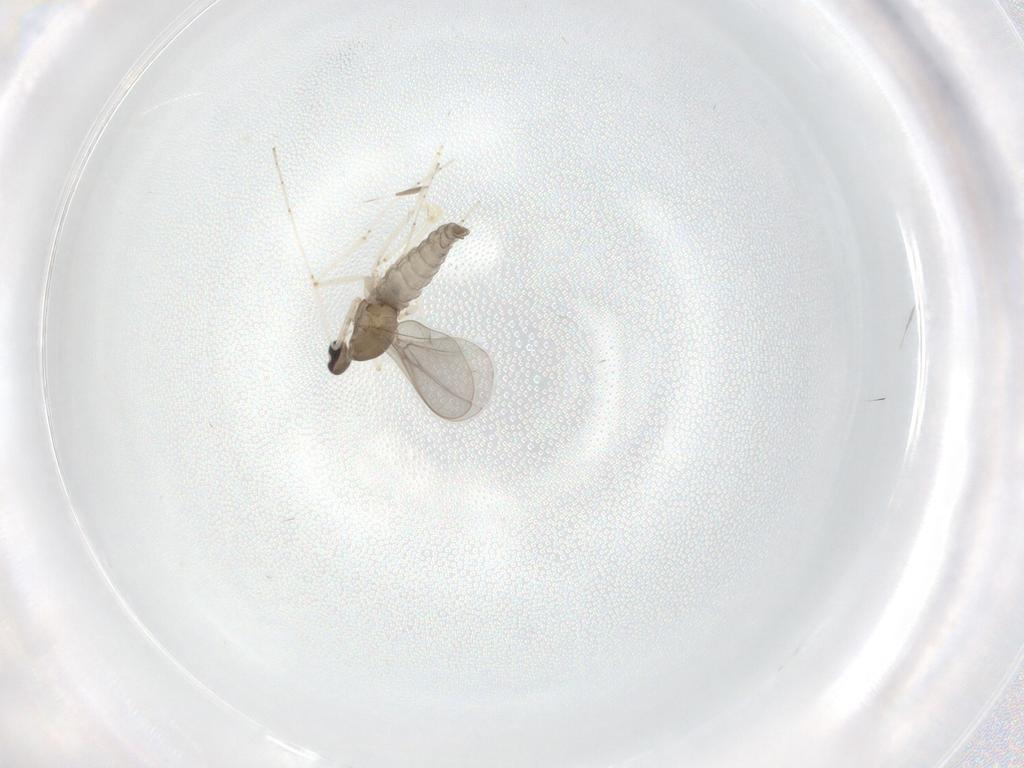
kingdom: Animalia
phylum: Arthropoda
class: Insecta
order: Diptera
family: Cecidomyiidae
